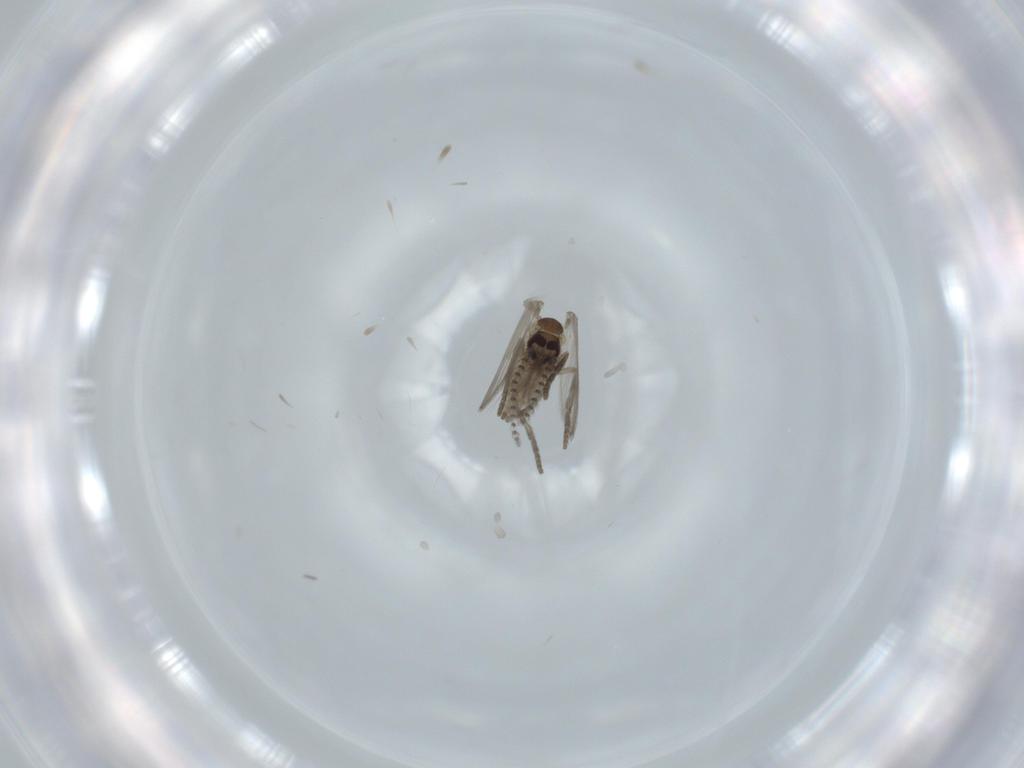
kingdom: Animalia
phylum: Arthropoda
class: Insecta
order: Diptera
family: Psychodidae
